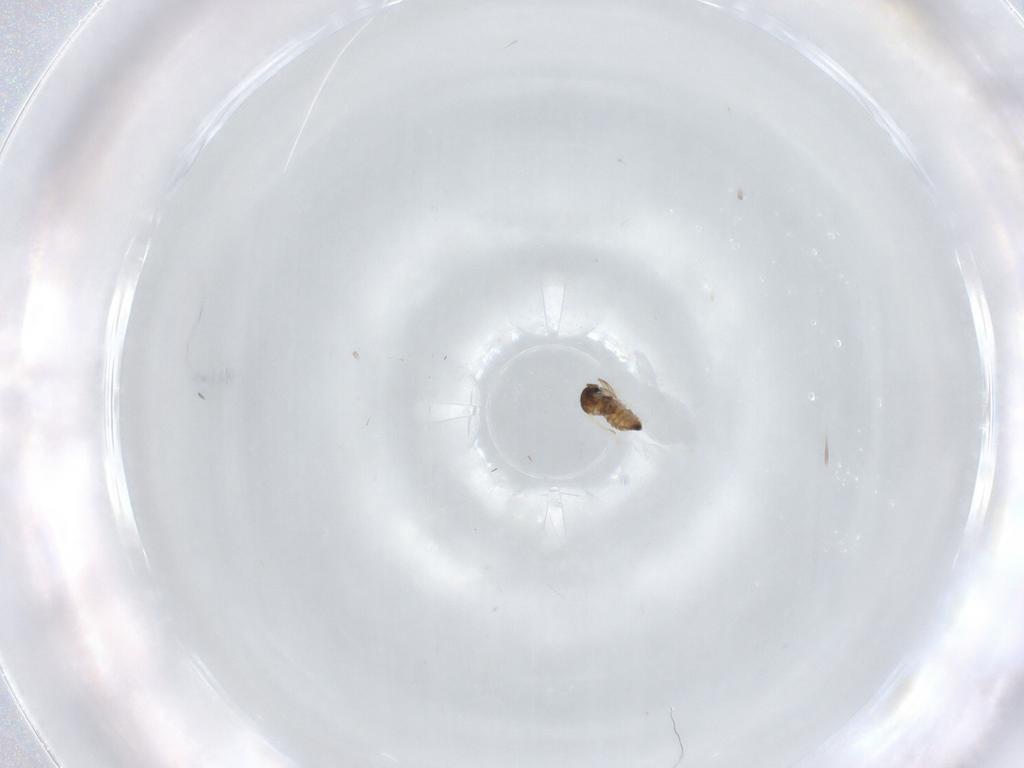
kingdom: Animalia
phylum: Arthropoda
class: Insecta
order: Diptera
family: Cecidomyiidae
